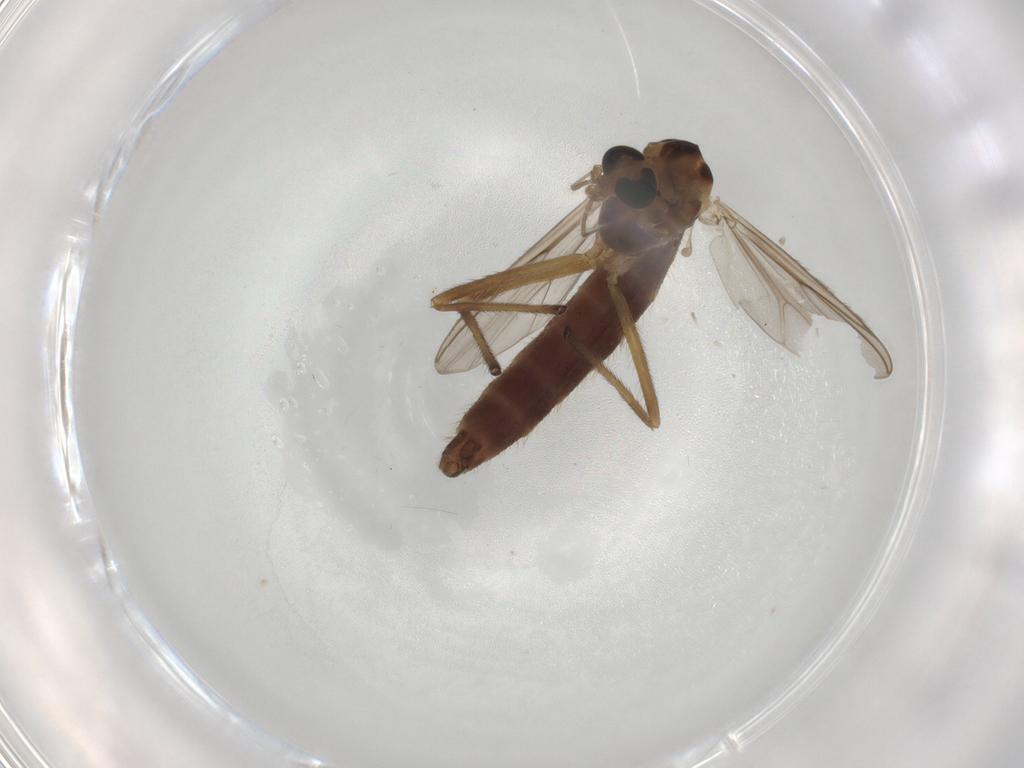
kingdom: Animalia
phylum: Arthropoda
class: Insecta
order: Diptera
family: Chironomidae
